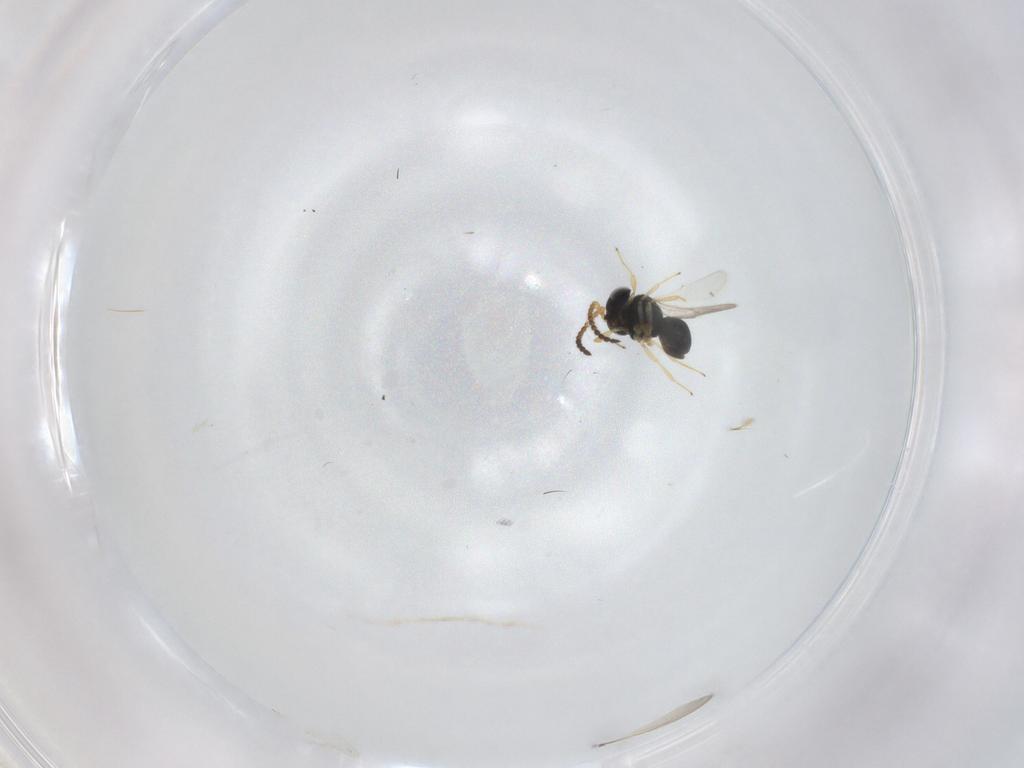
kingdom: Animalia
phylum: Arthropoda
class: Insecta
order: Hymenoptera
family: Scelionidae
